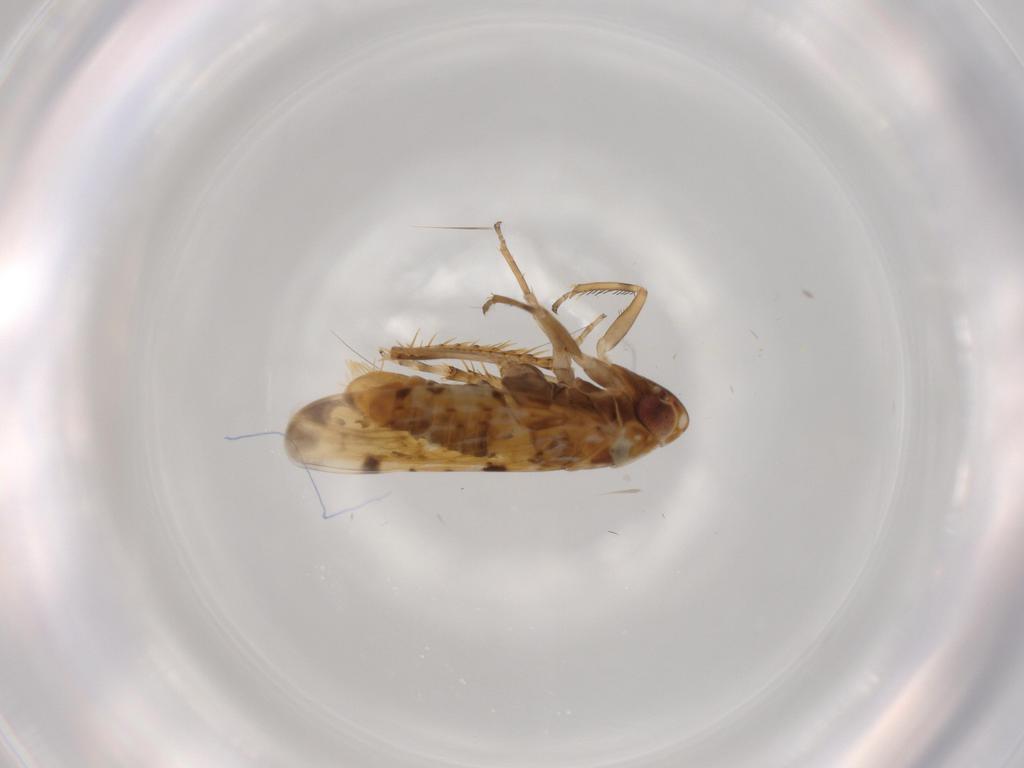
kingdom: Animalia
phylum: Arthropoda
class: Insecta
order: Hemiptera
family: Cicadellidae
